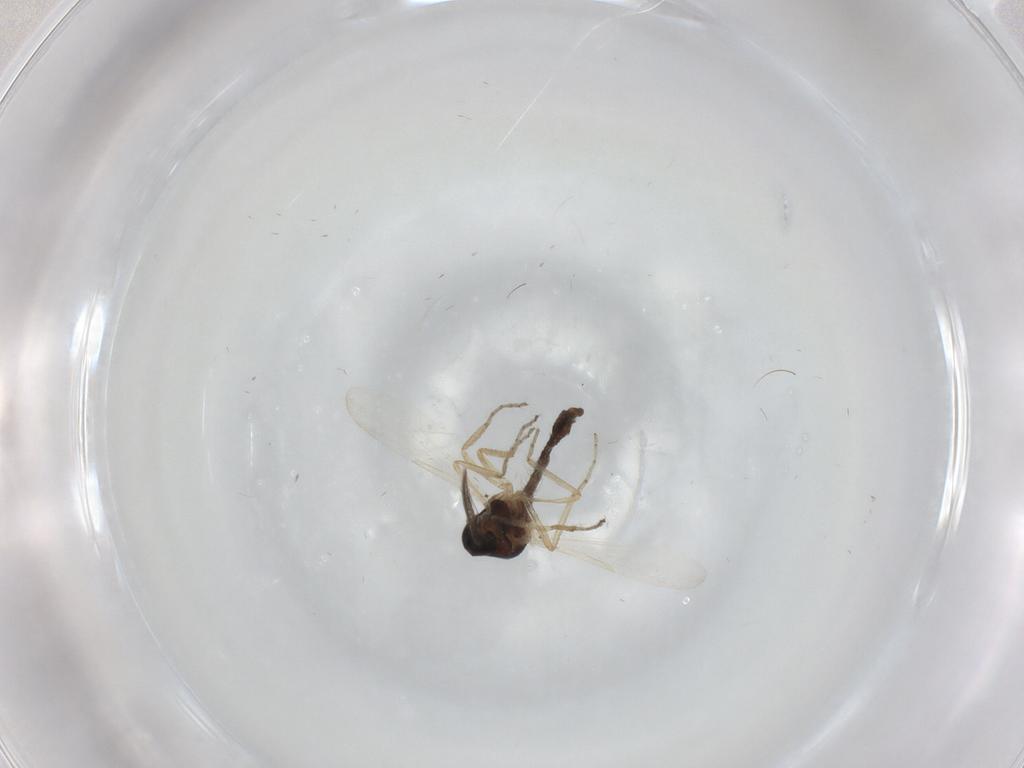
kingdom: Animalia
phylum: Arthropoda
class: Insecta
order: Diptera
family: Ceratopogonidae
